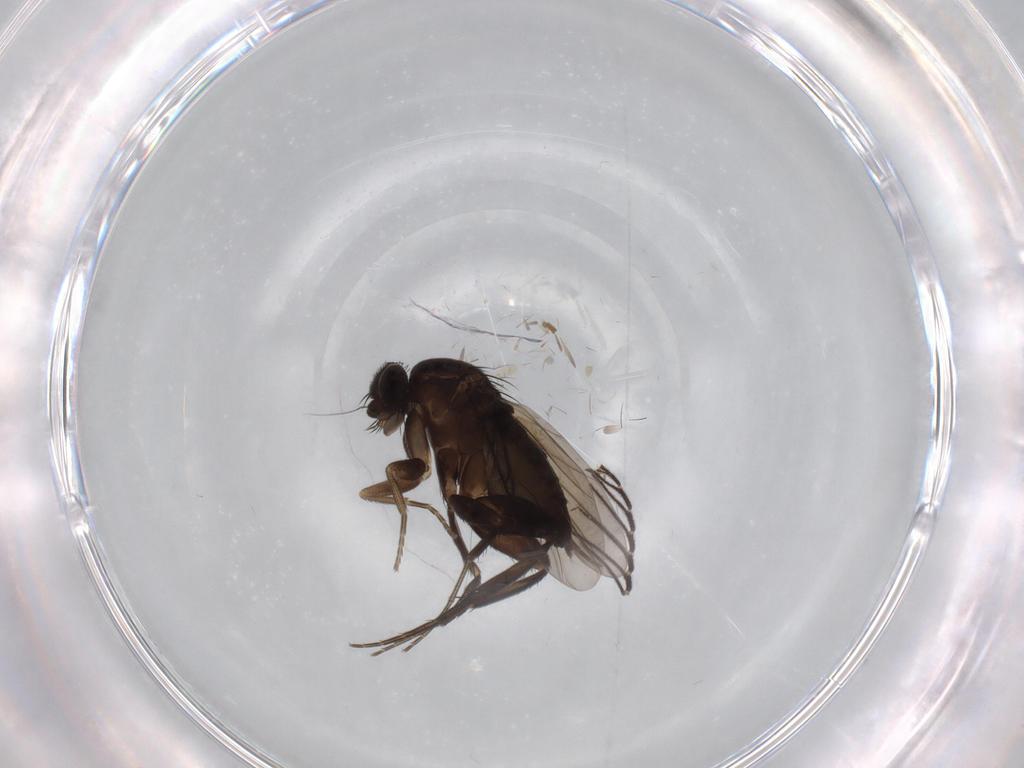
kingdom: Animalia
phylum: Arthropoda
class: Insecta
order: Diptera
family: Ditomyiidae
